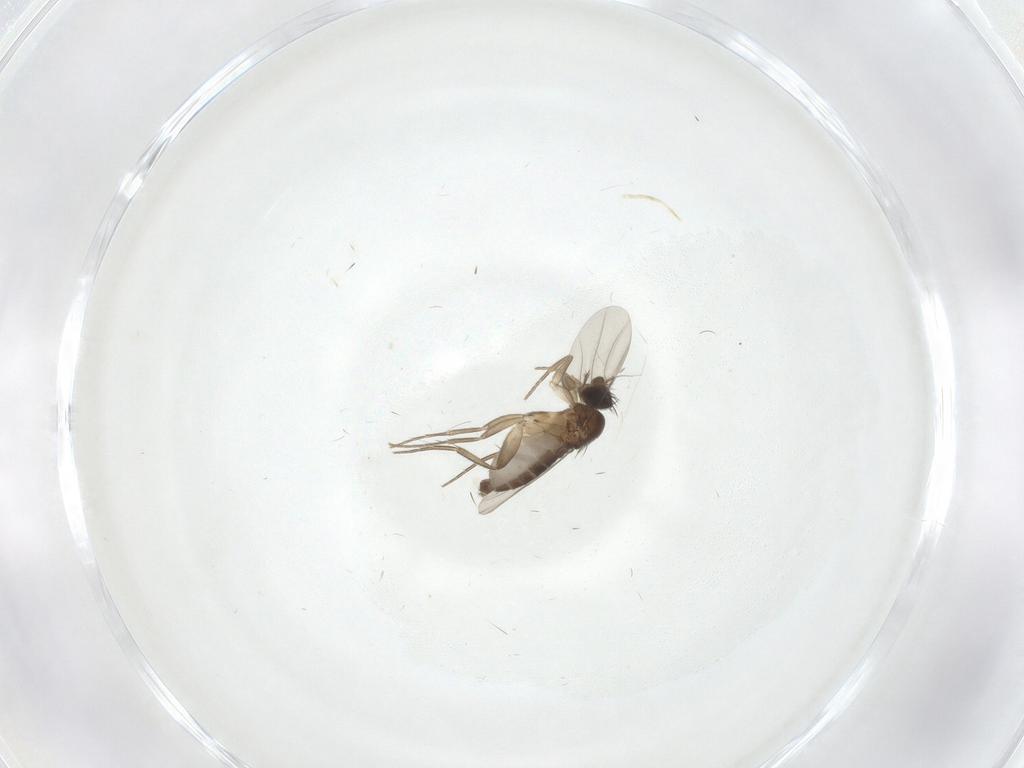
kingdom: Animalia
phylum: Arthropoda
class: Insecta
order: Diptera
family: Phoridae
